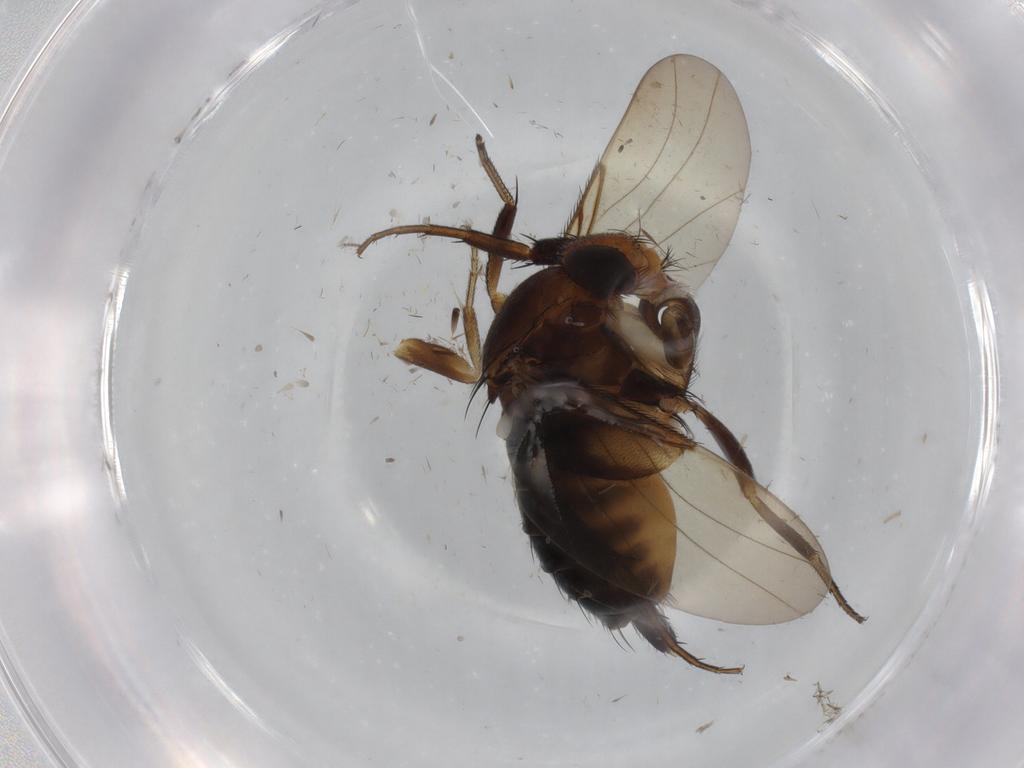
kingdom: Animalia
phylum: Arthropoda
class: Insecta
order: Diptera
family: Phoridae
